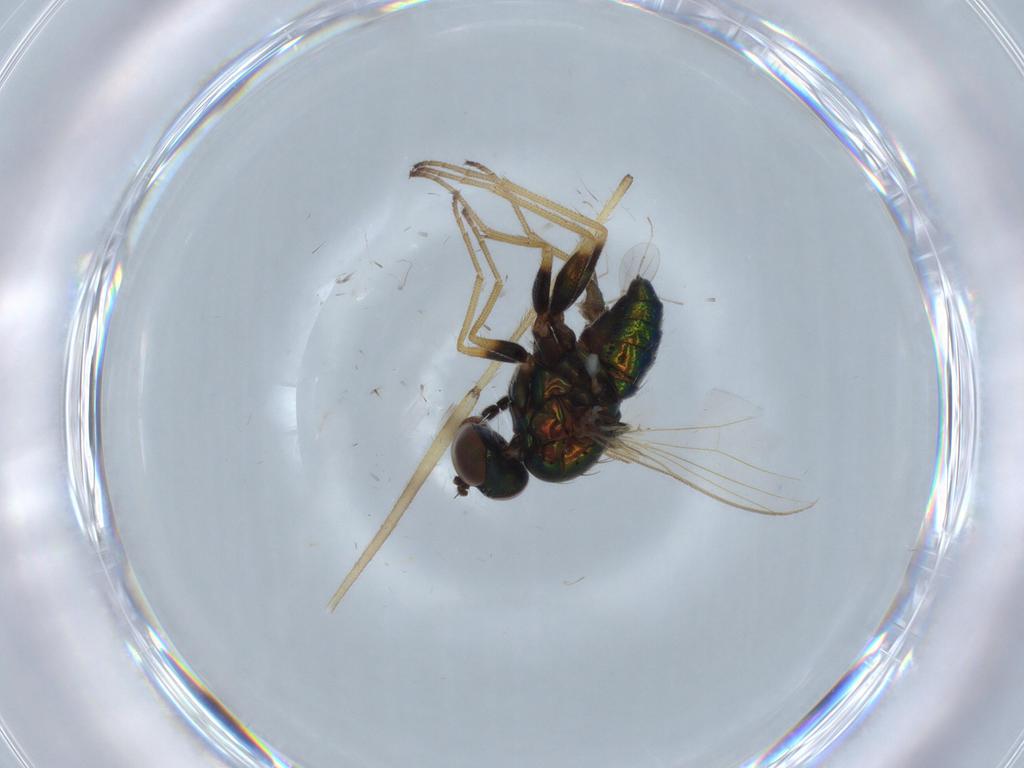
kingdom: Animalia
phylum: Arthropoda
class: Insecta
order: Diptera
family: Dolichopodidae
